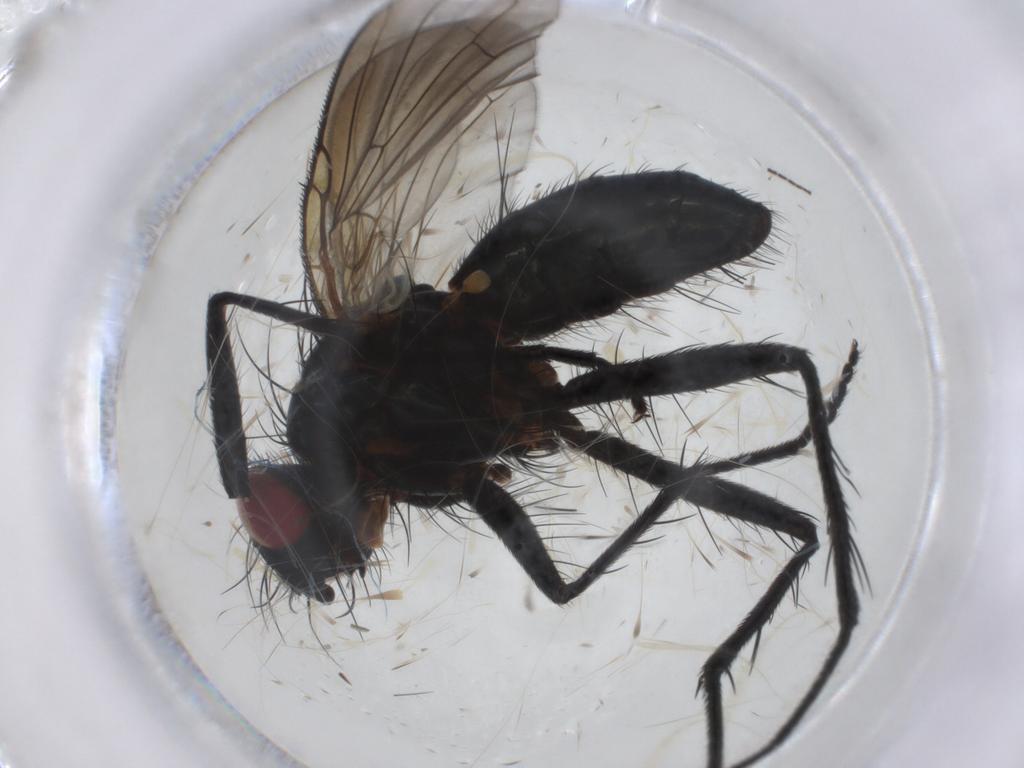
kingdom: Animalia
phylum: Arthropoda
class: Insecta
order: Diptera
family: Tachinidae
